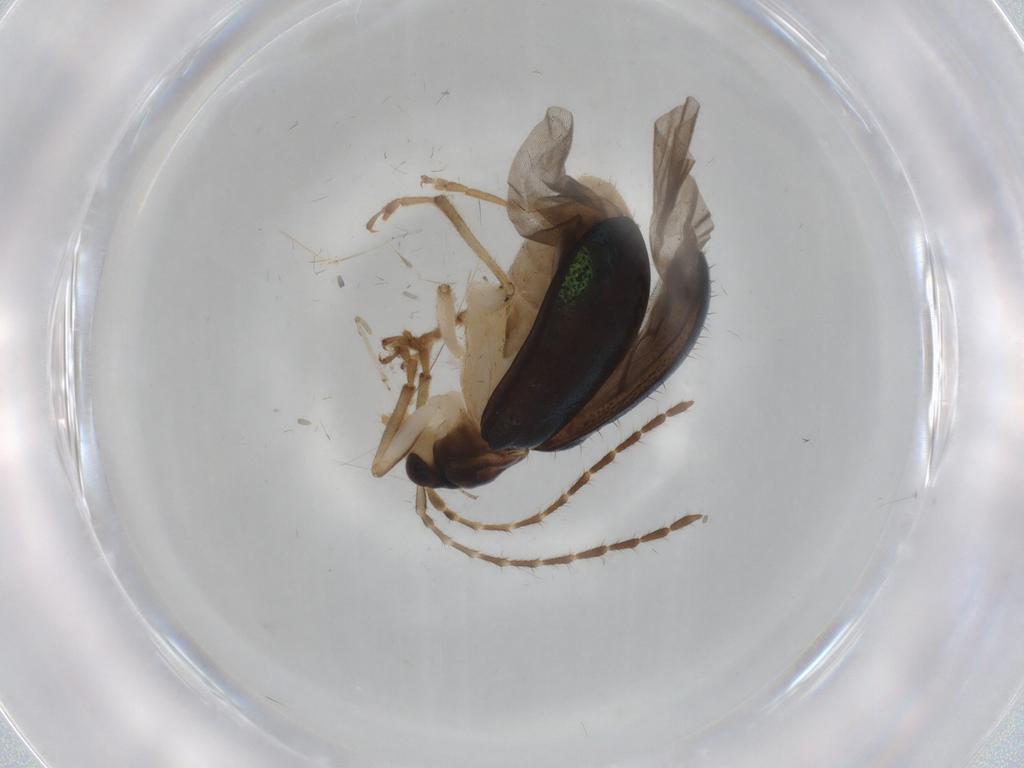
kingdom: Animalia
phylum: Arthropoda
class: Insecta
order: Coleoptera
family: Chrysomelidae
